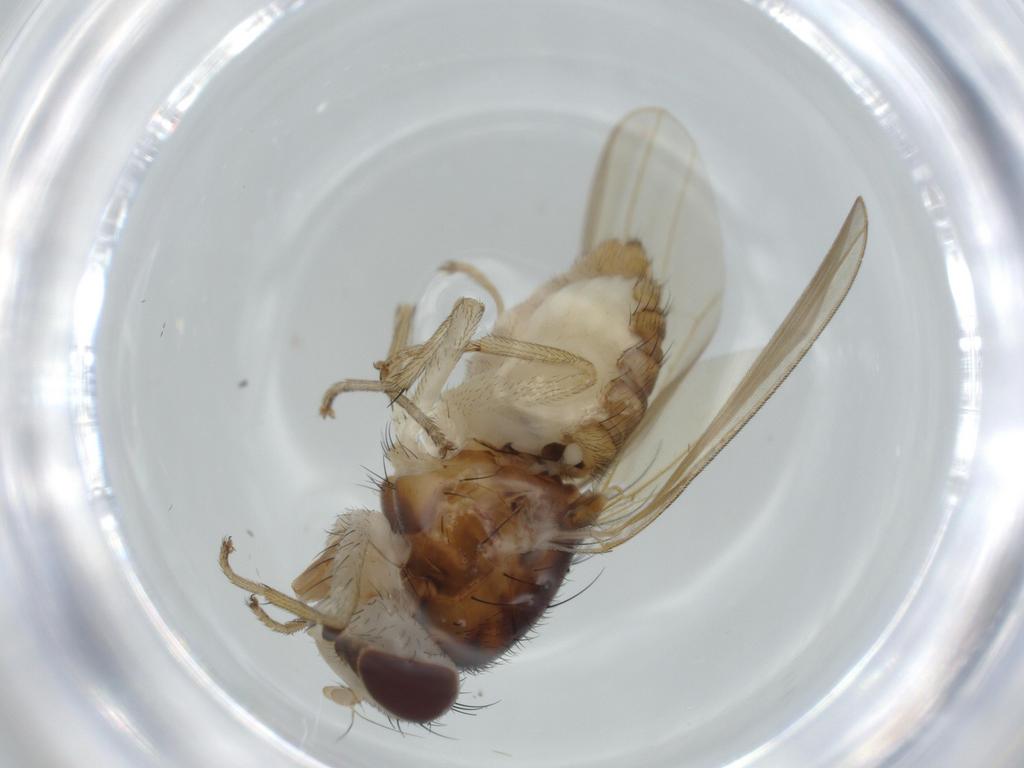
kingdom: Animalia
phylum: Arthropoda
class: Insecta
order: Diptera
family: Lauxaniidae
